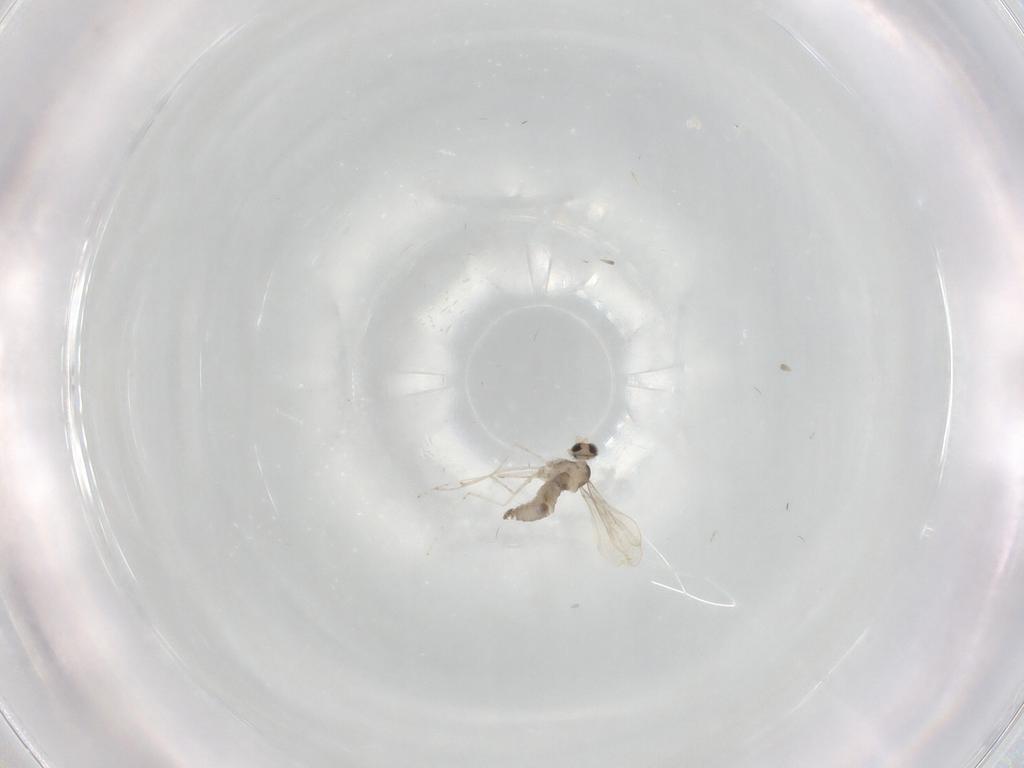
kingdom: Animalia
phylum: Arthropoda
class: Insecta
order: Diptera
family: Cecidomyiidae
